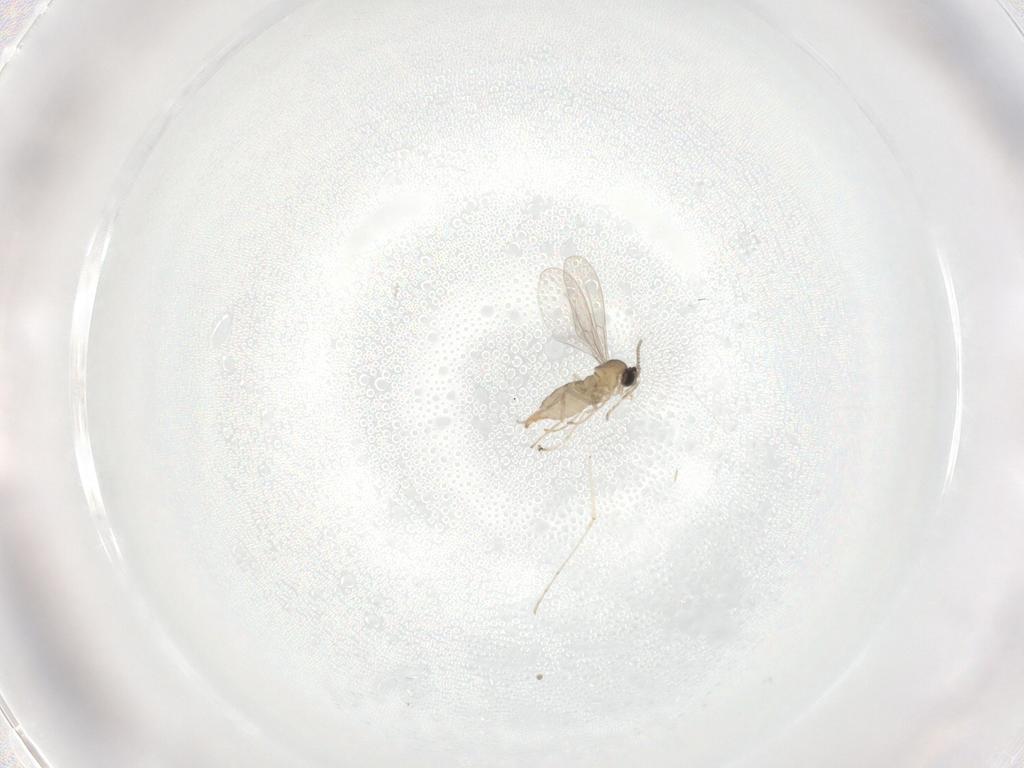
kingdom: Animalia
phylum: Arthropoda
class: Insecta
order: Diptera
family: Cecidomyiidae
